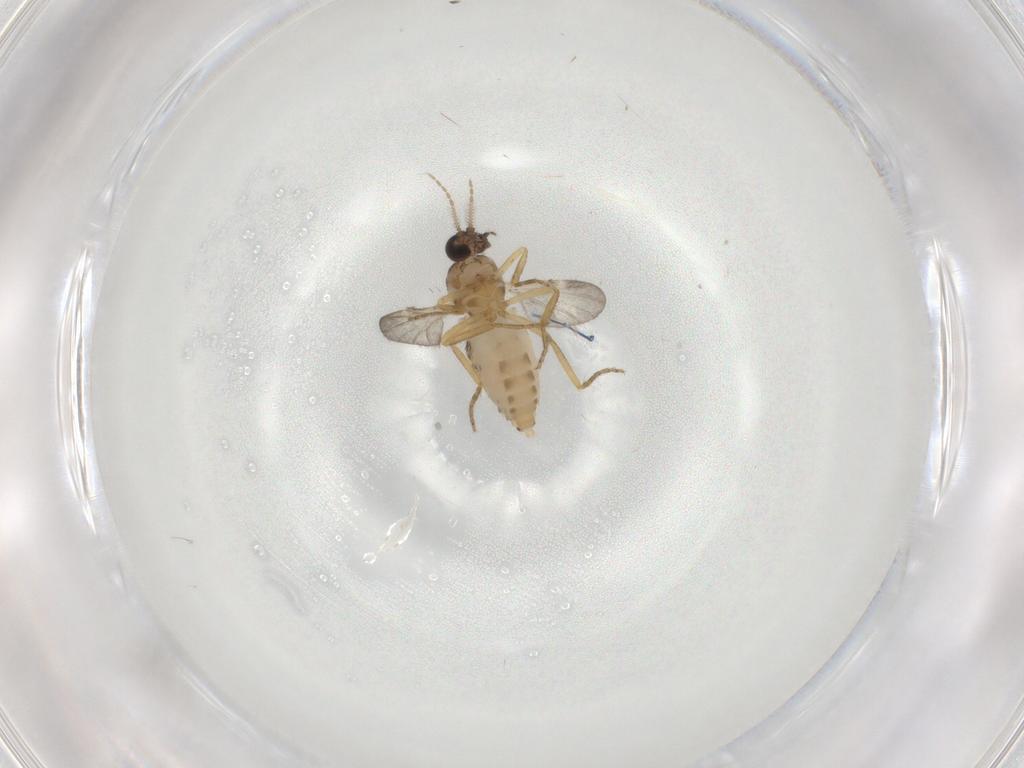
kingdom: Animalia
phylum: Arthropoda
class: Insecta
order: Diptera
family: Cecidomyiidae
